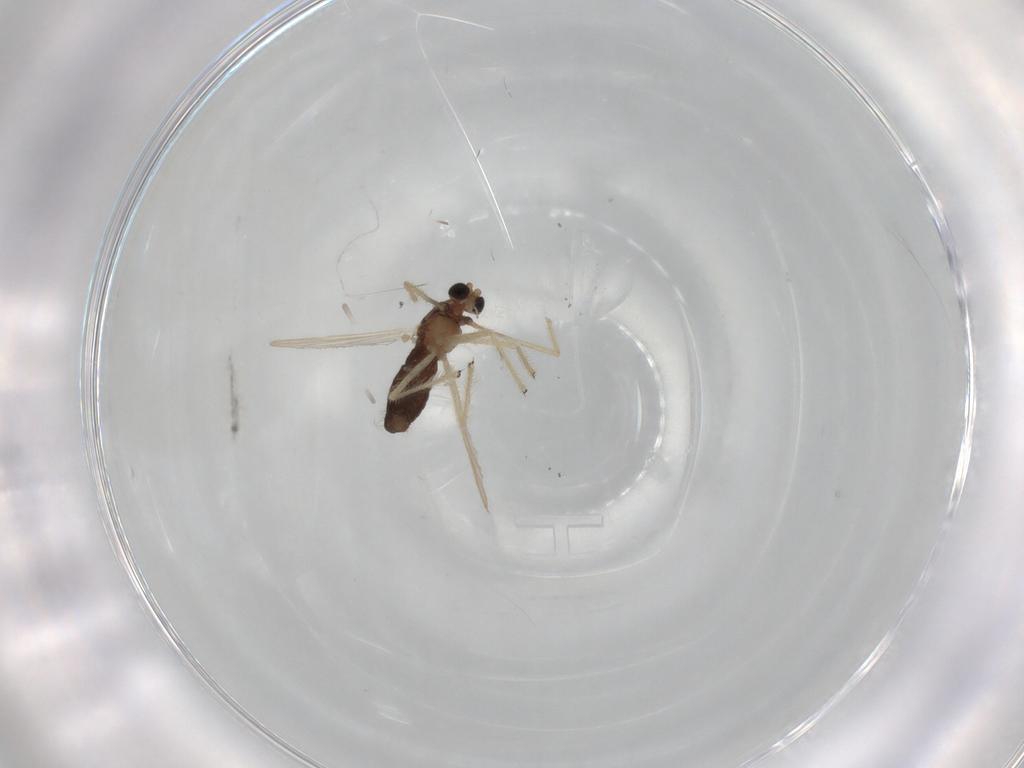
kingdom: Animalia
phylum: Arthropoda
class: Insecta
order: Diptera
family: Chironomidae
